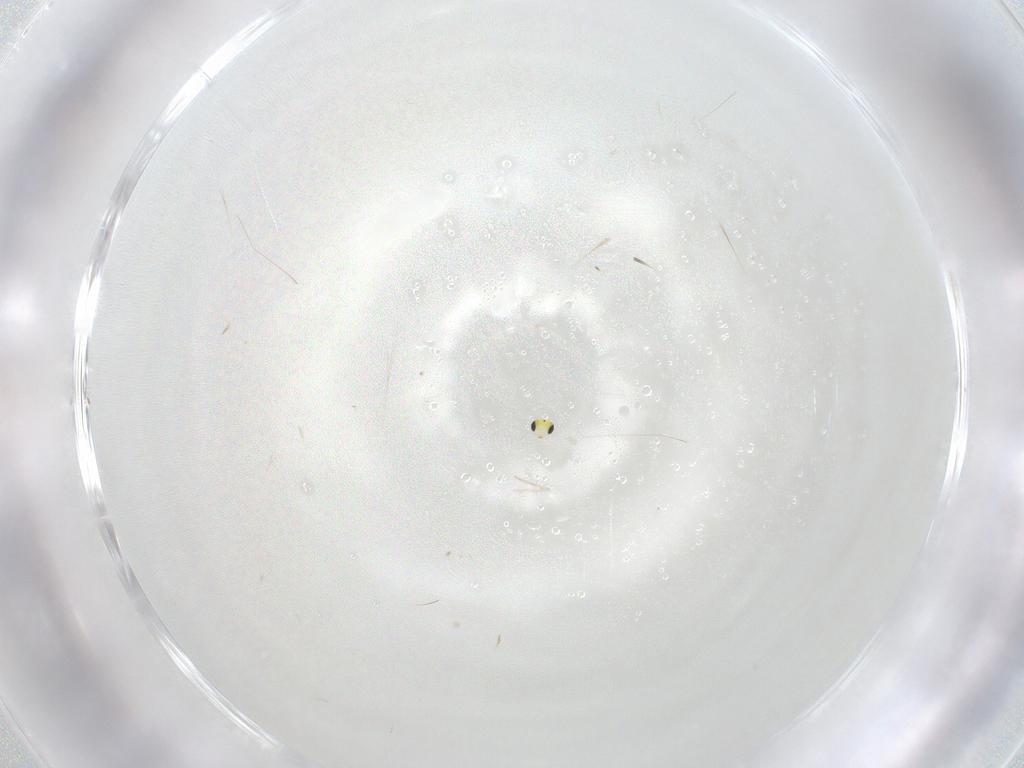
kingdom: Animalia
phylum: Arthropoda
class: Insecta
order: Hymenoptera
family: Trichogrammatidae
